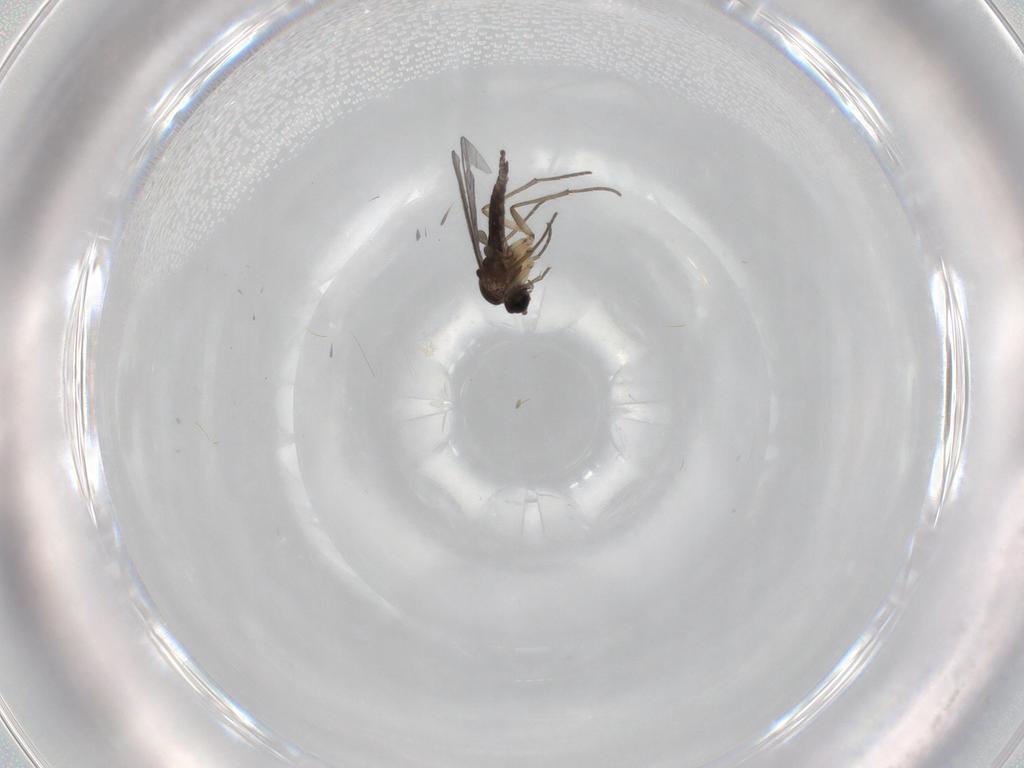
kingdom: Animalia
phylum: Arthropoda
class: Insecta
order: Diptera
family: Sciaridae
